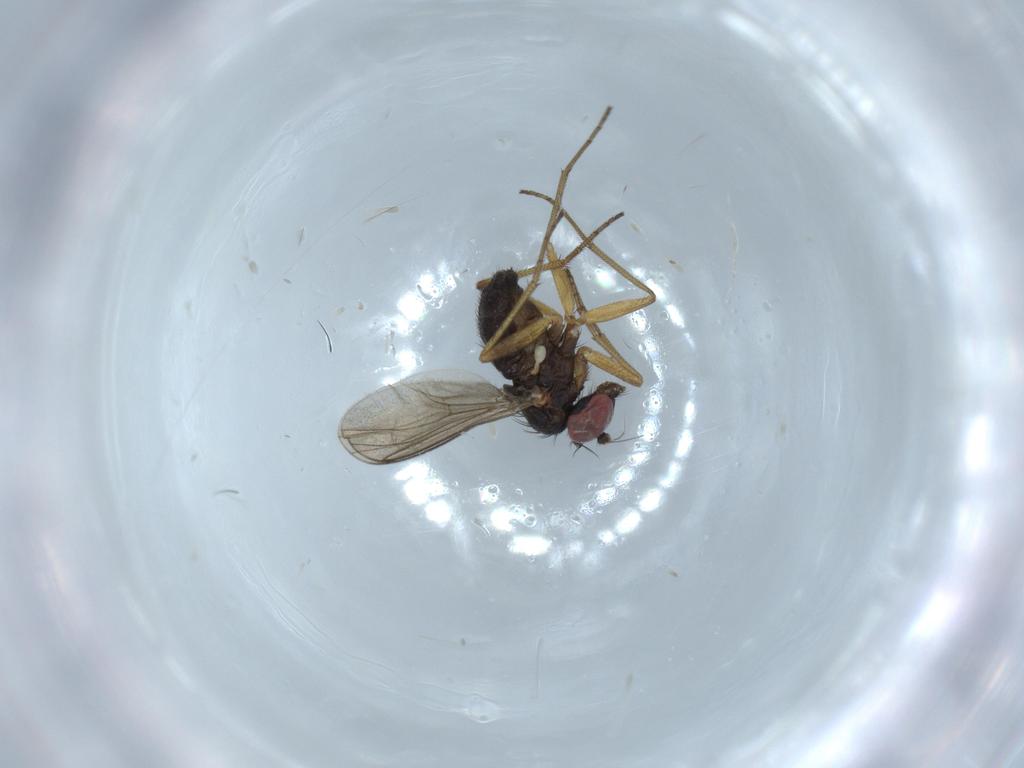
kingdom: Animalia
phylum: Arthropoda
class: Insecta
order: Diptera
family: Dolichopodidae
